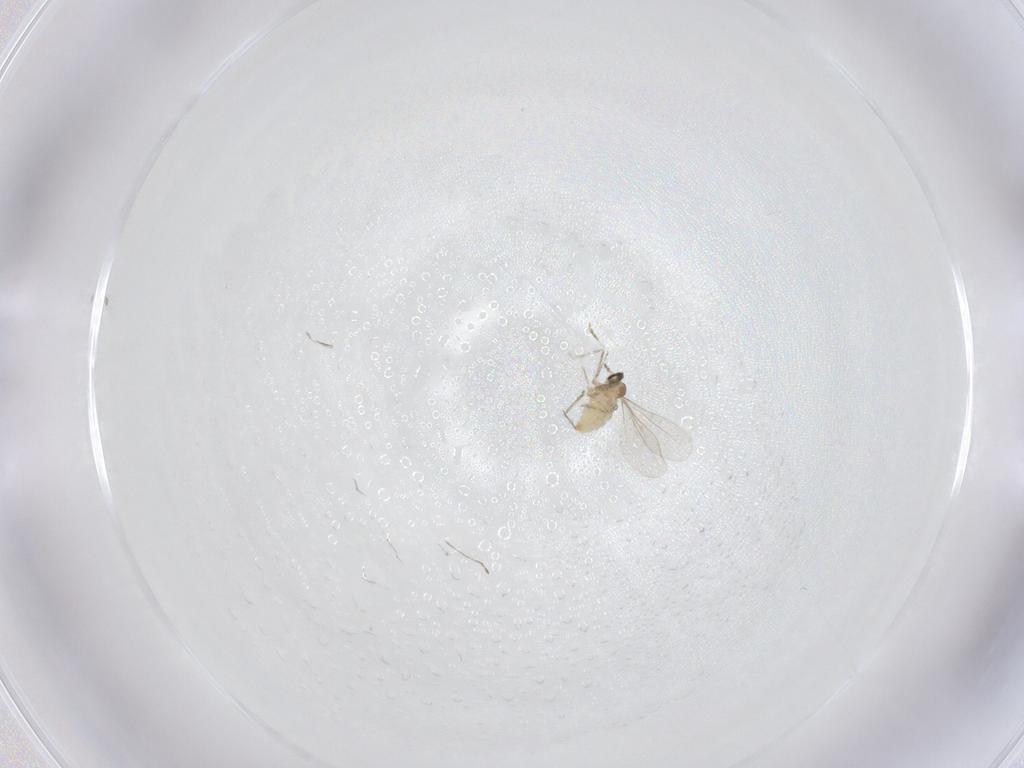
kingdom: Animalia
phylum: Arthropoda
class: Insecta
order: Diptera
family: Cecidomyiidae
